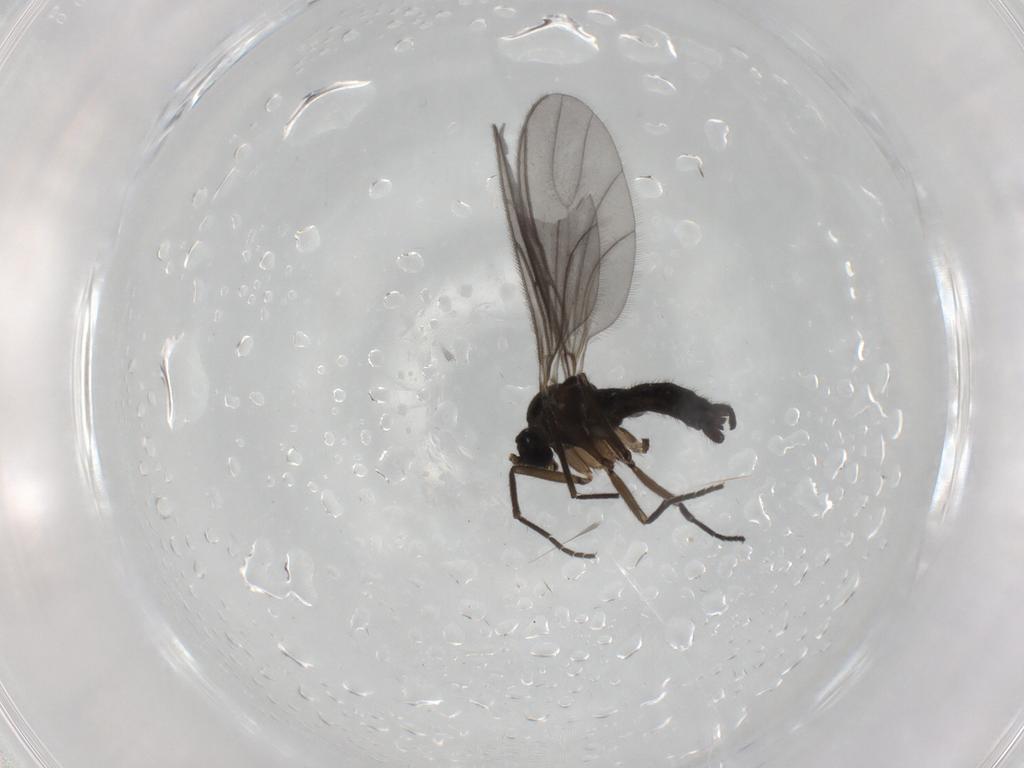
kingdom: Animalia
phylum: Arthropoda
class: Insecta
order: Diptera
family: Sciaridae
